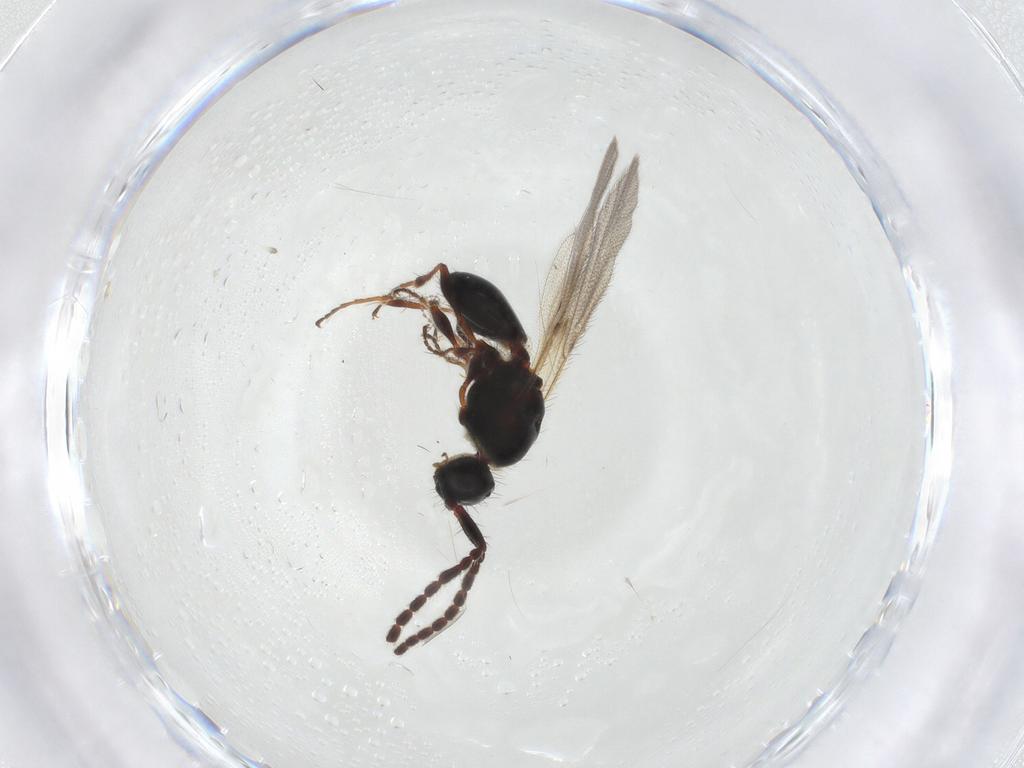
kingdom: Animalia
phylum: Arthropoda
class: Insecta
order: Hymenoptera
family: Diapriidae
